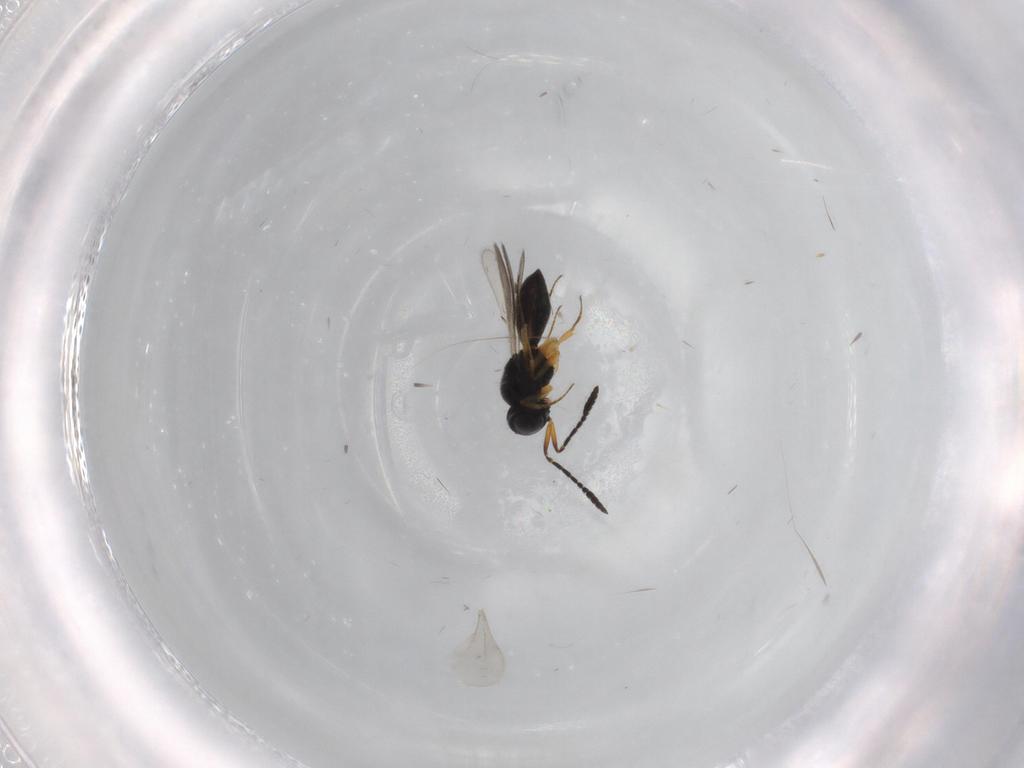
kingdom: Animalia
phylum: Arthropoda
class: Insecta
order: Hymenoptera
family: Scelionidae
